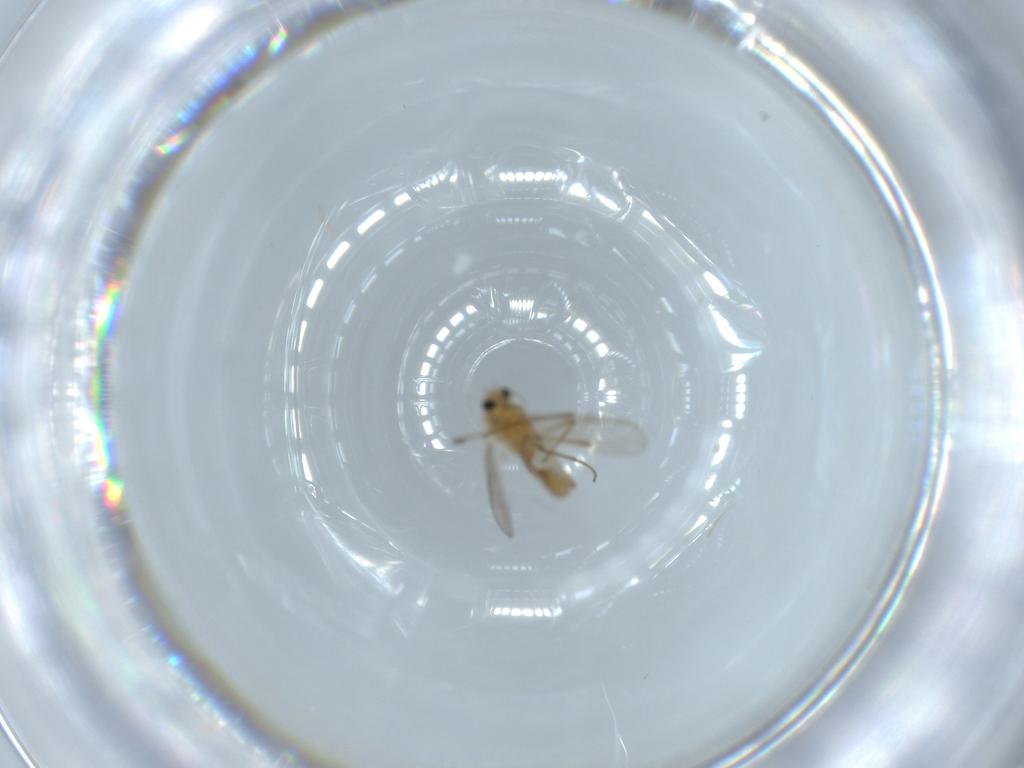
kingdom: Animalia
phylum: Arthropoda
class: Insecta
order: Diptera
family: Chironomidae
